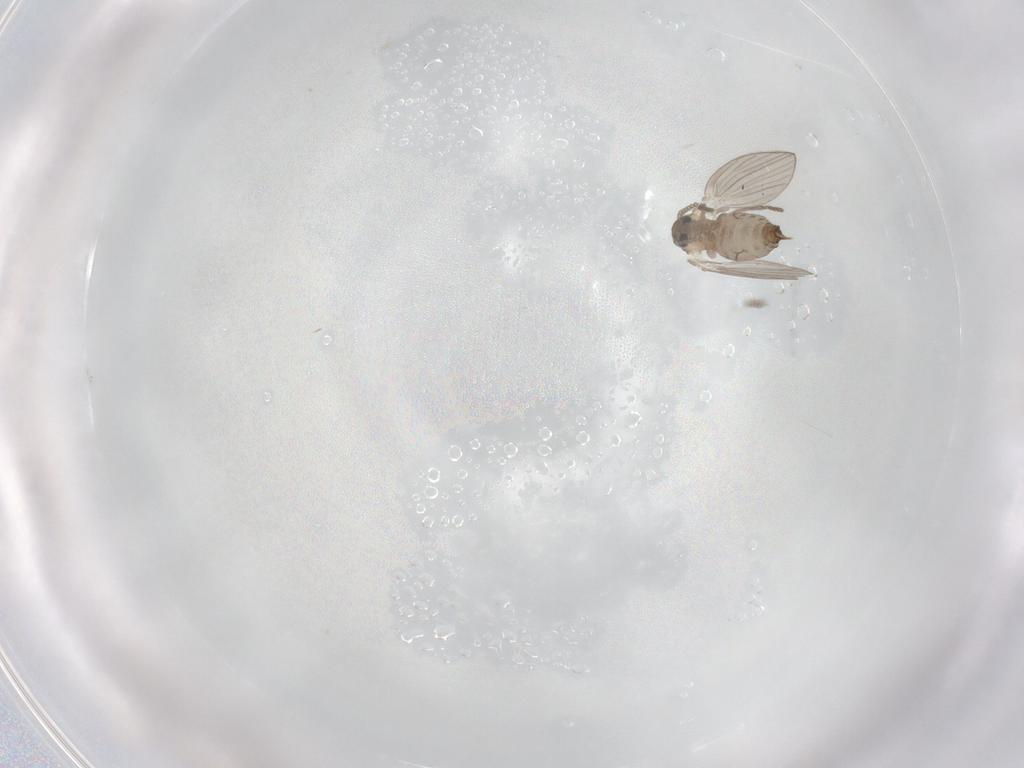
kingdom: Animalia
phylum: Arthropoda
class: Insecta
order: Diptera
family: Psychodidae
